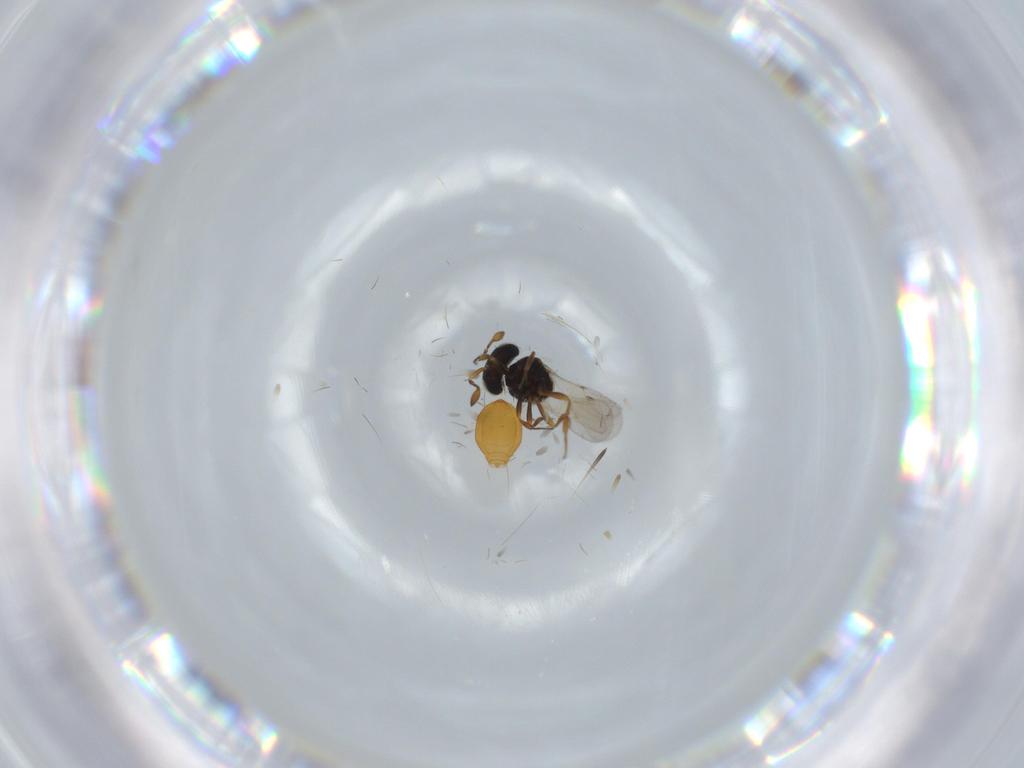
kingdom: Animalia
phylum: Arthropoda
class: Insecta
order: Hymenoptera
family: Scelionidae
